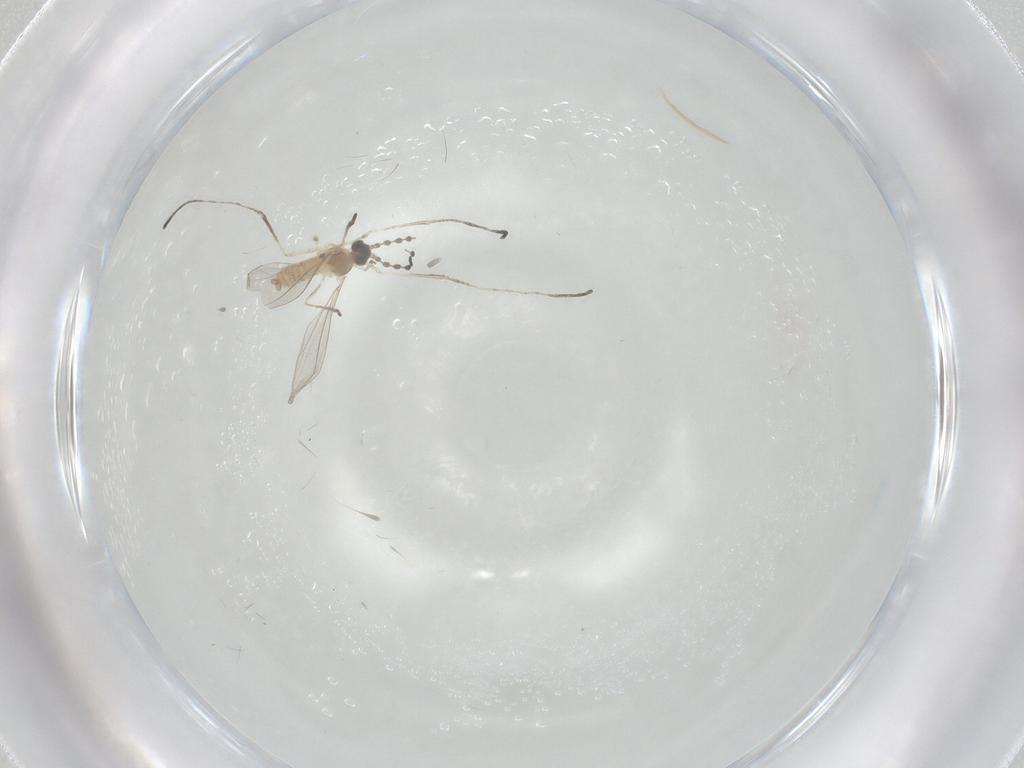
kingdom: Animalia
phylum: Arthropoda
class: Insecta
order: Diptera
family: Cecidomyiidae
